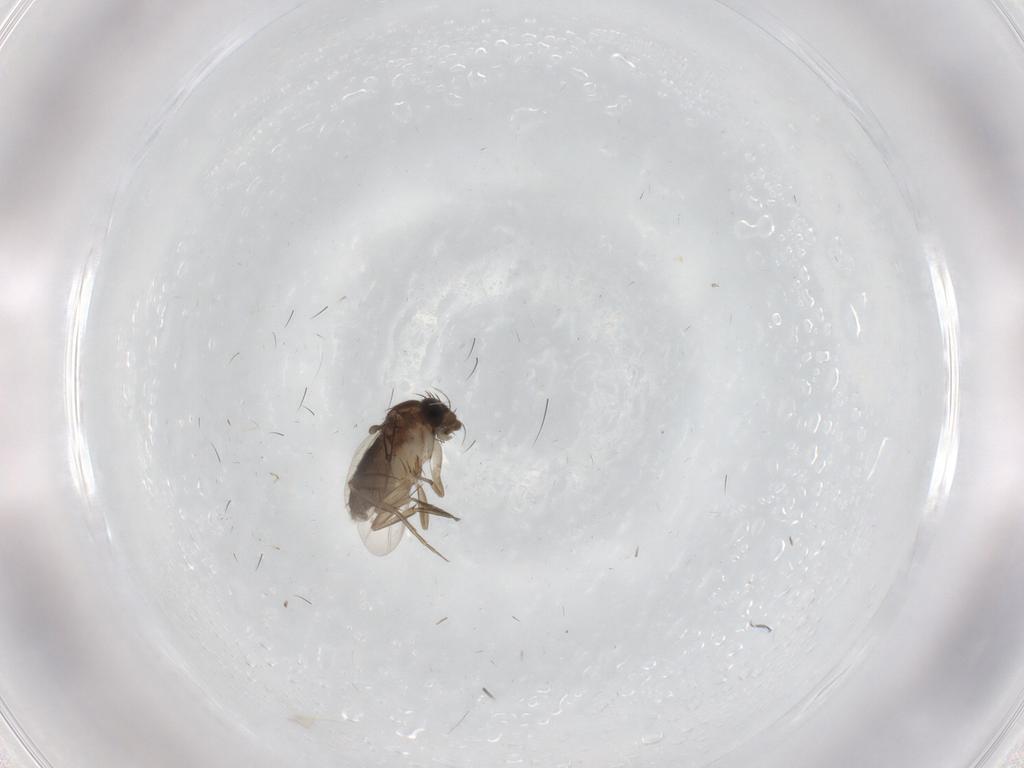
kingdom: Animalia
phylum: Arthropoda
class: Insecta
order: Diptera
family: Phoridae
